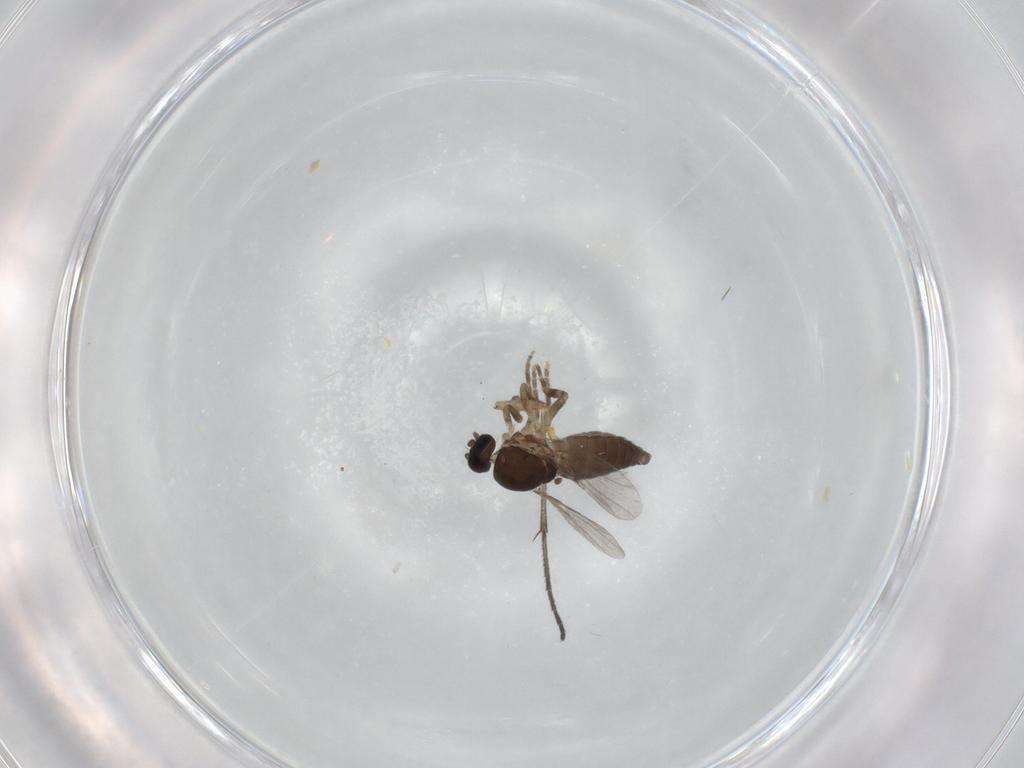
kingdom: Animalia
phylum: Arthropoda
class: Insecta
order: Diptera
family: Ceratopogonidae
